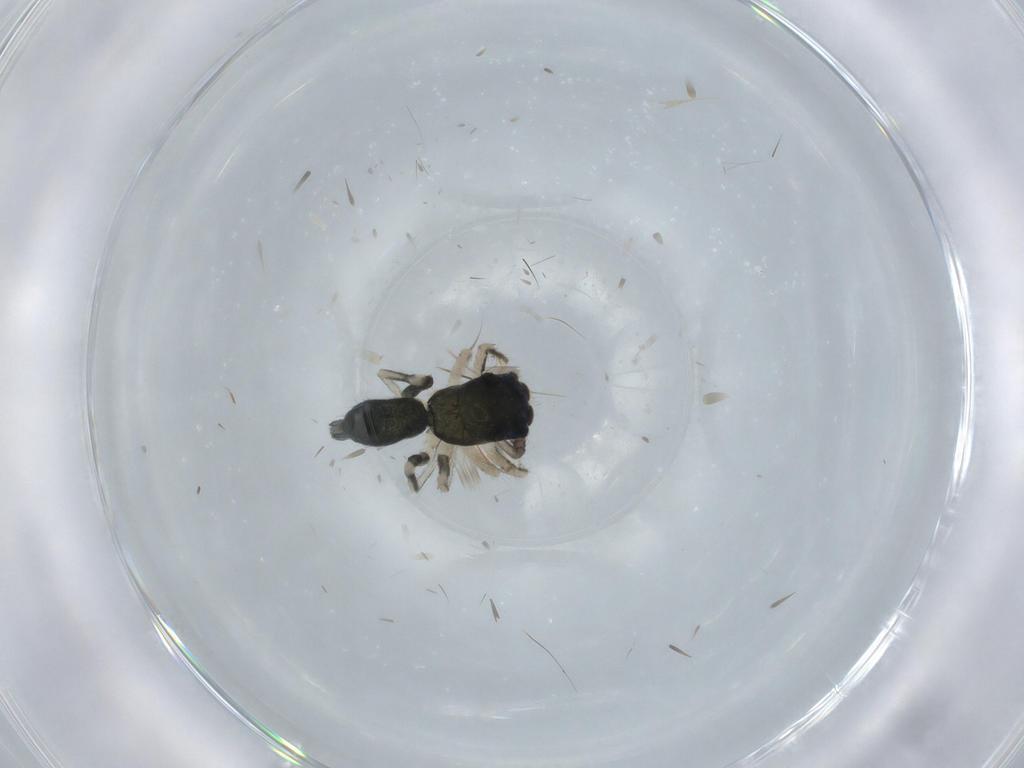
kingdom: Animalia
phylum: Arthropoda
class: Arachnida
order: Araneae
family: Salticidae
